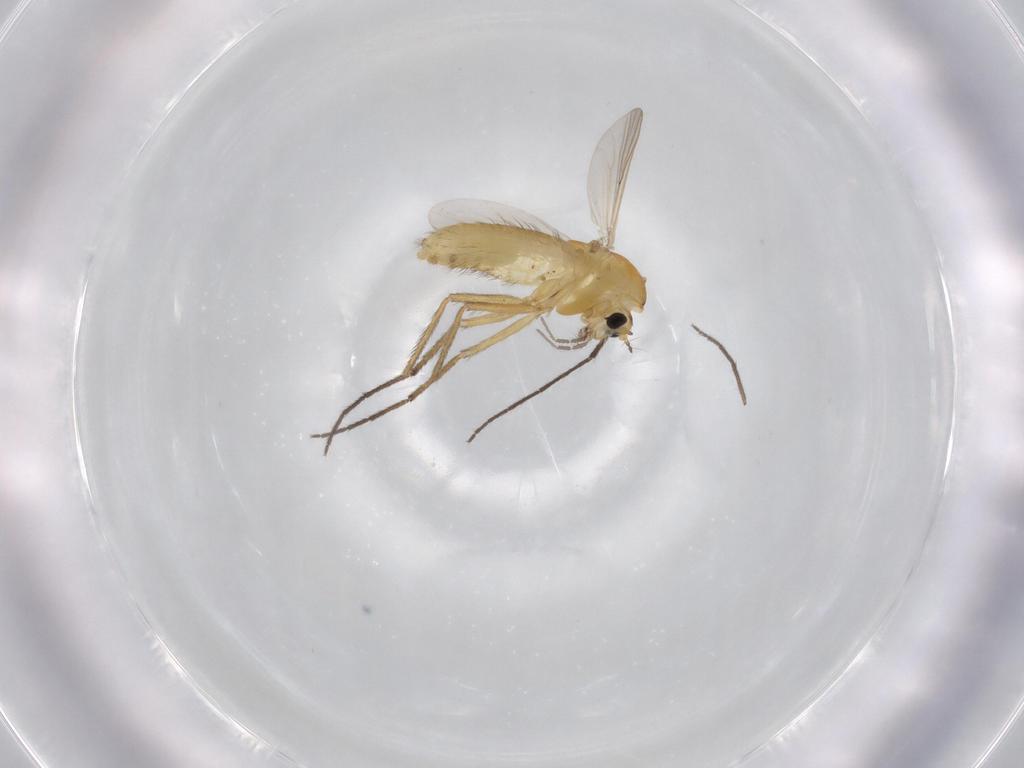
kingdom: Animalia
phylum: Arthropoda
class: Insecta
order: Diptera
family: Chironomidae
